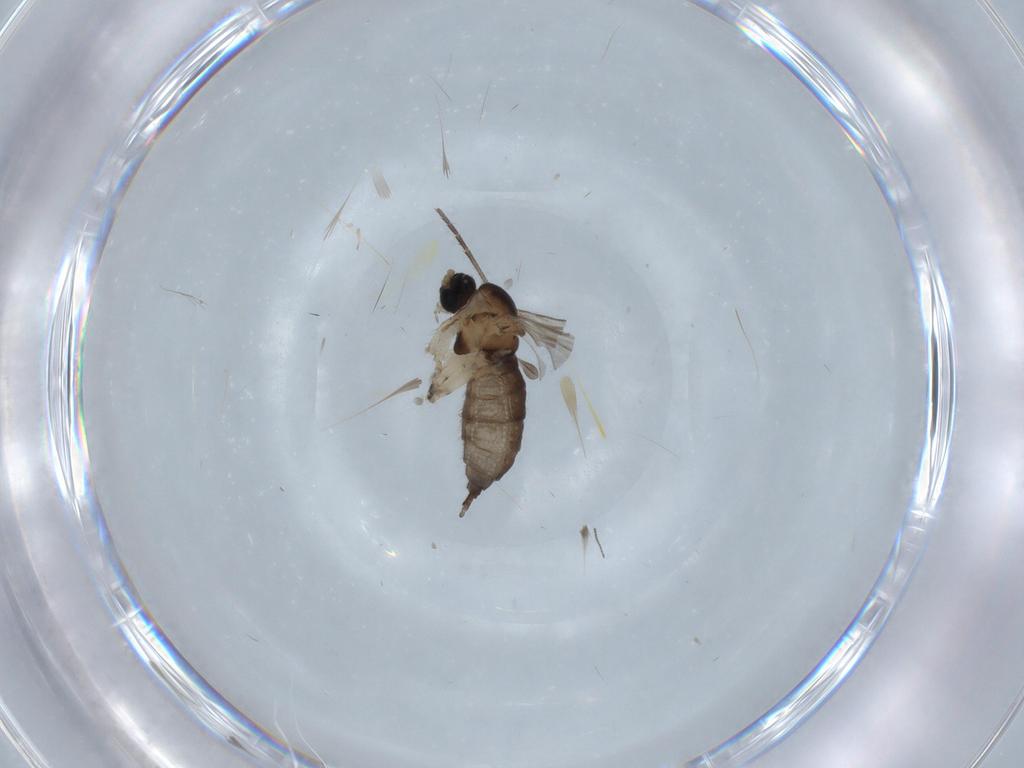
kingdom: Animalia
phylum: Arthropoda
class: Insecta
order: Diptera
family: Sciaridae
